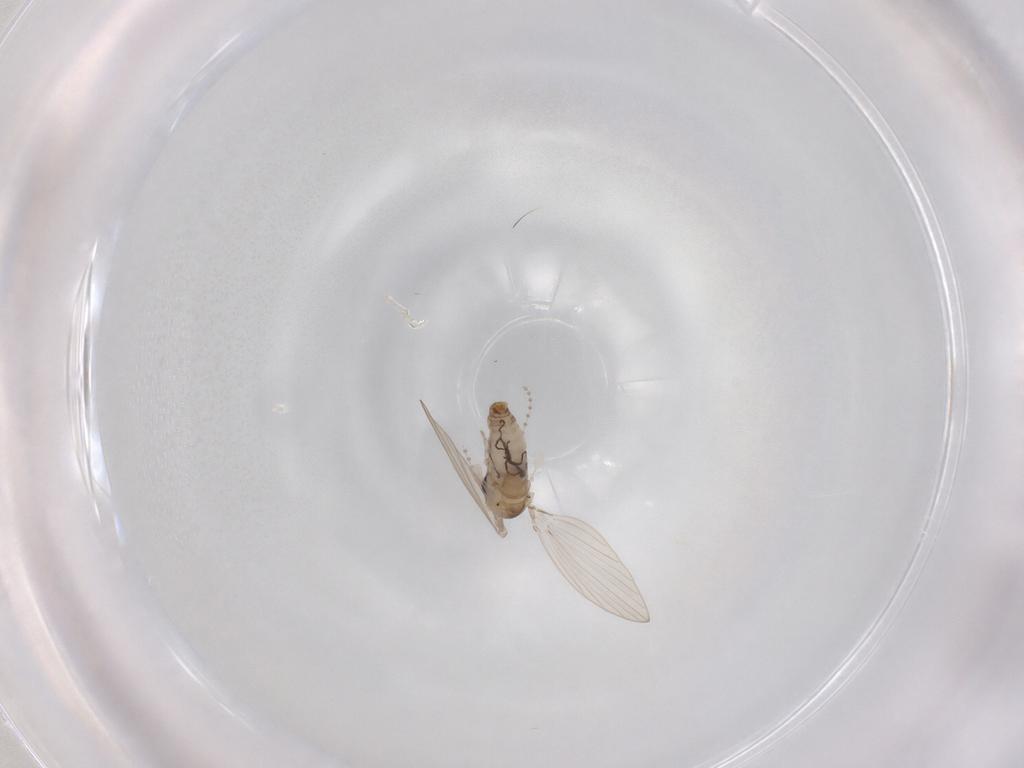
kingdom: Animalia
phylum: Arthropoda
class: Insecta
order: Diptera
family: Psychodidae
